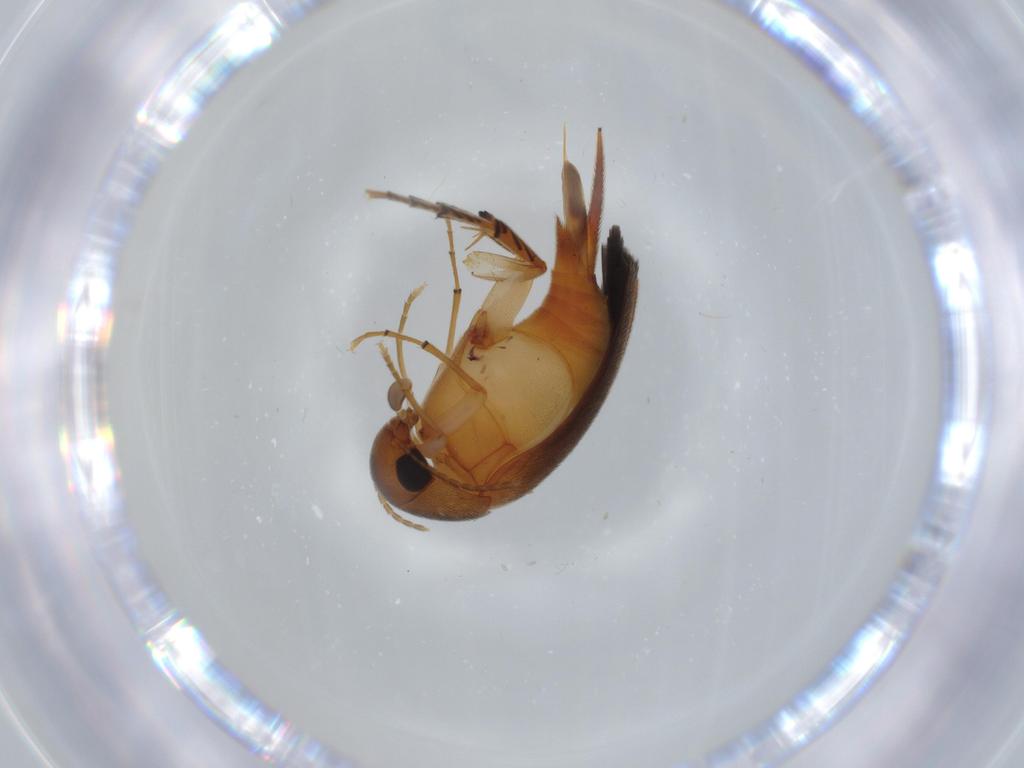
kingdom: Animalia
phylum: Arthropoda
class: Insecta
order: Coleoptera
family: Mordellidae
